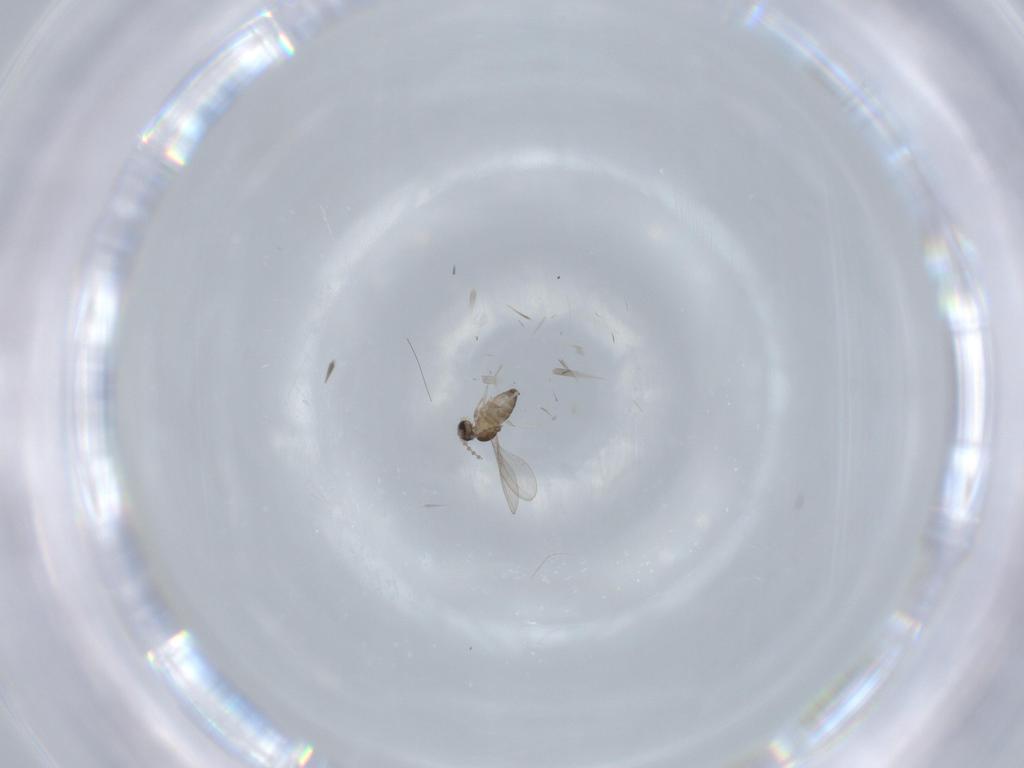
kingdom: Animalia
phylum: Arthropoda
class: Insecta
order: Diptera
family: Cecidomyiidae
